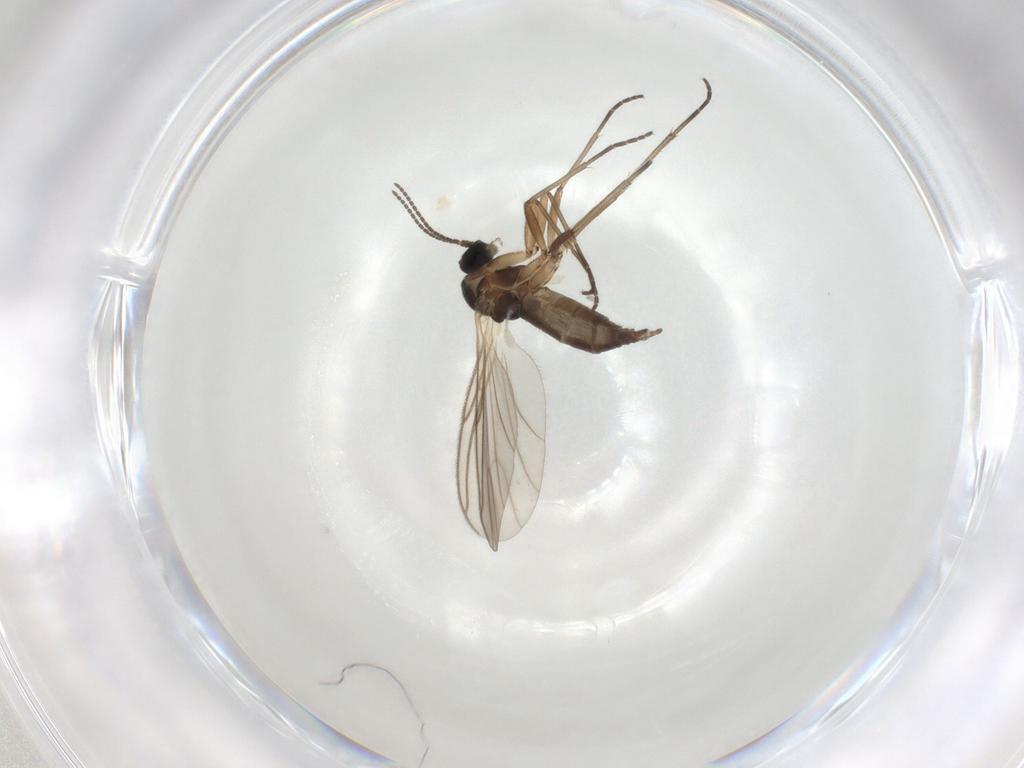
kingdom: Animalia
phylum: Arthropoda
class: Insecta
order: Diptera
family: Chironomidae
